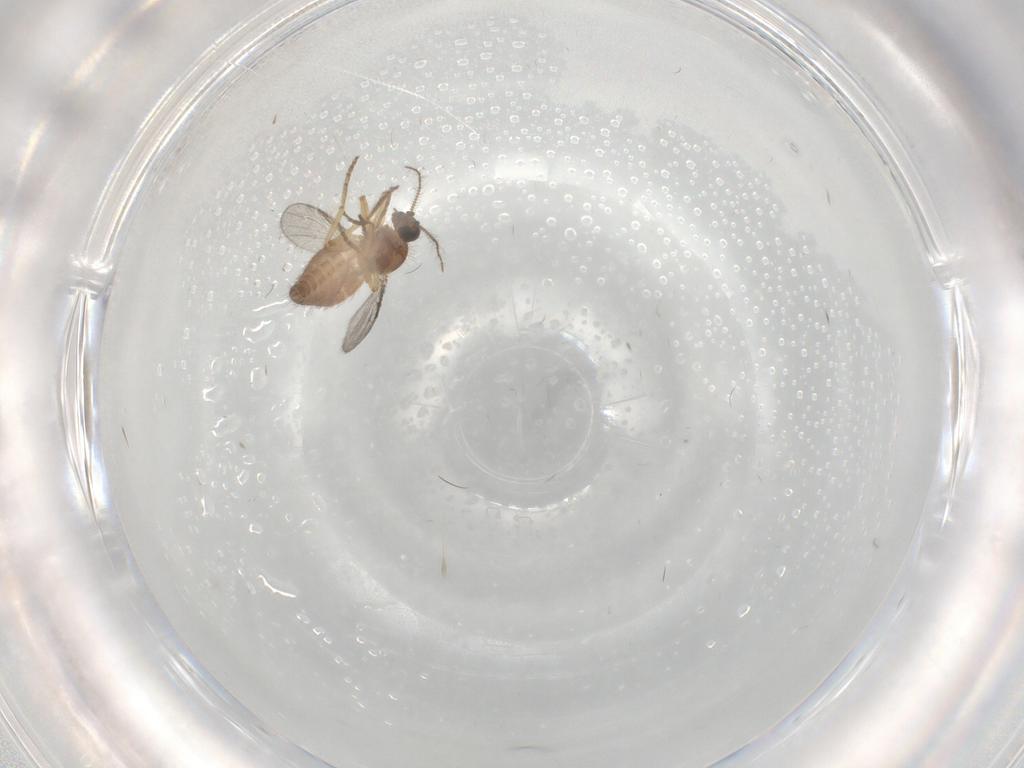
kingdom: Animalia
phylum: Arthropoda
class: Insecta
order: Diptera
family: Ceratopogonidae
